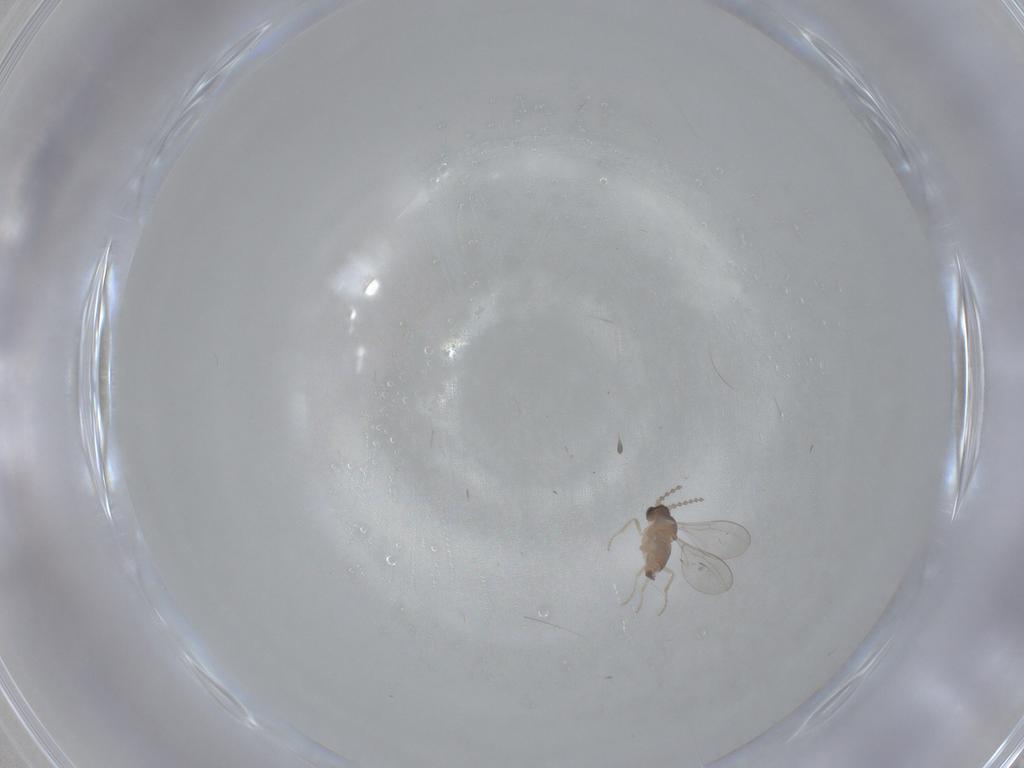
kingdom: Animalia
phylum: Arthropoda
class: Insecta
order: Diptera
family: Cecidomyiidae
